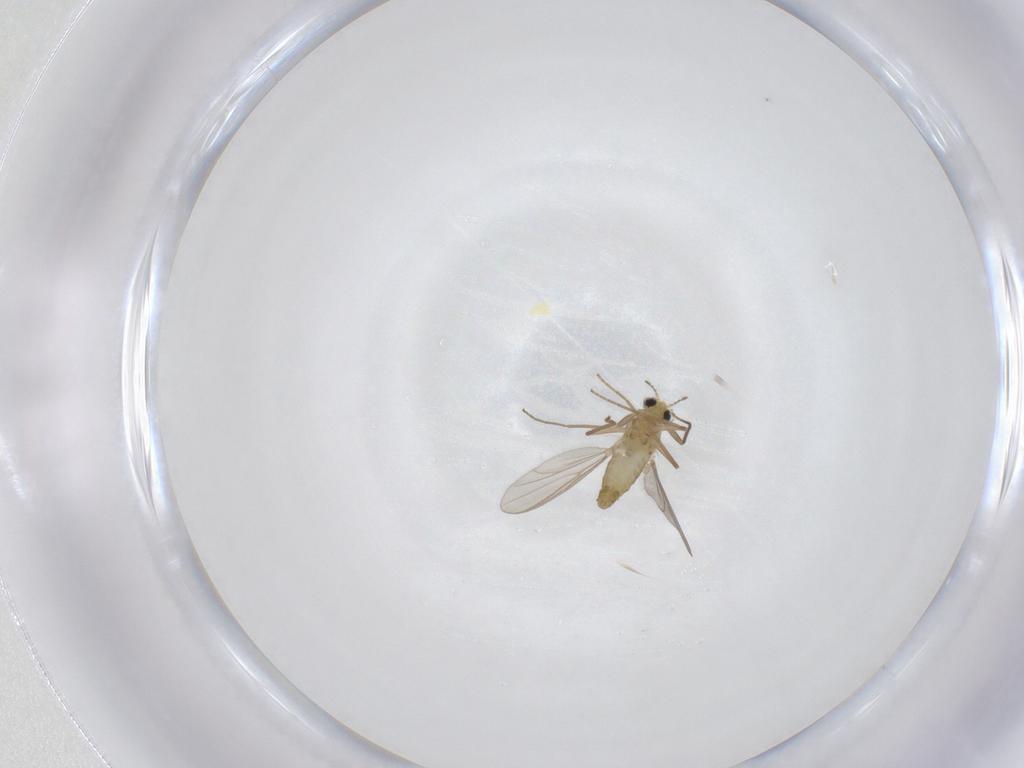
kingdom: Animalia
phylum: Arthropoda
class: Insecta
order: Diptera
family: Chironomidae
